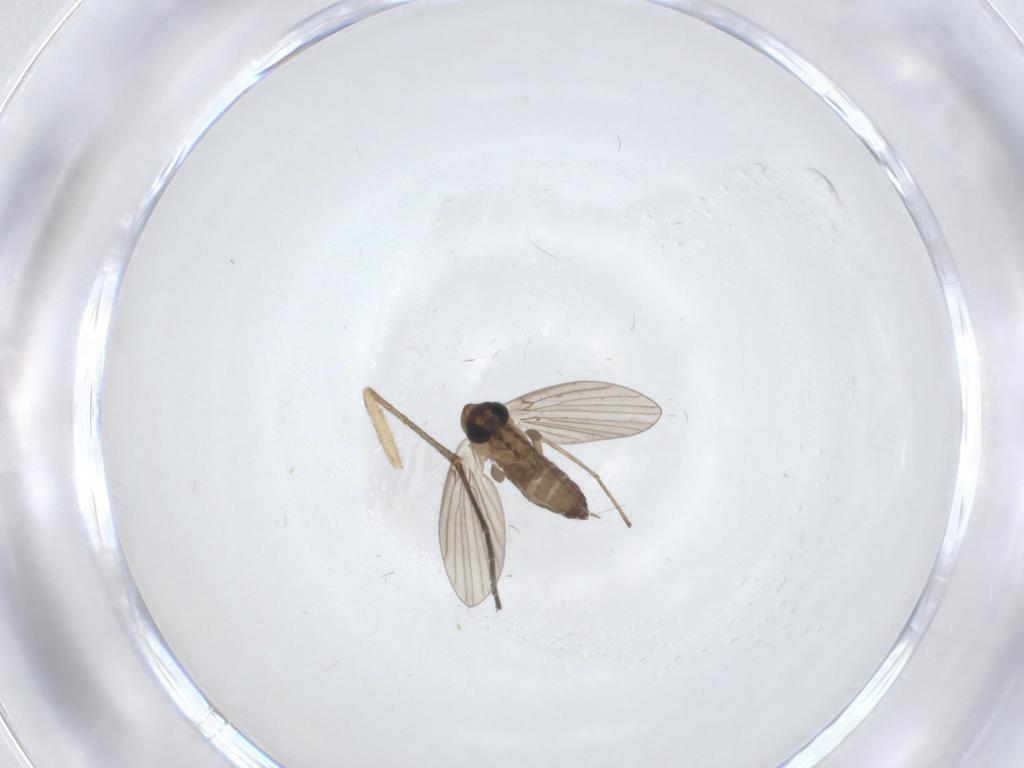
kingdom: Animalia
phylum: Arthropoda
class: Insecta
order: Diptera
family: Sciaridae
